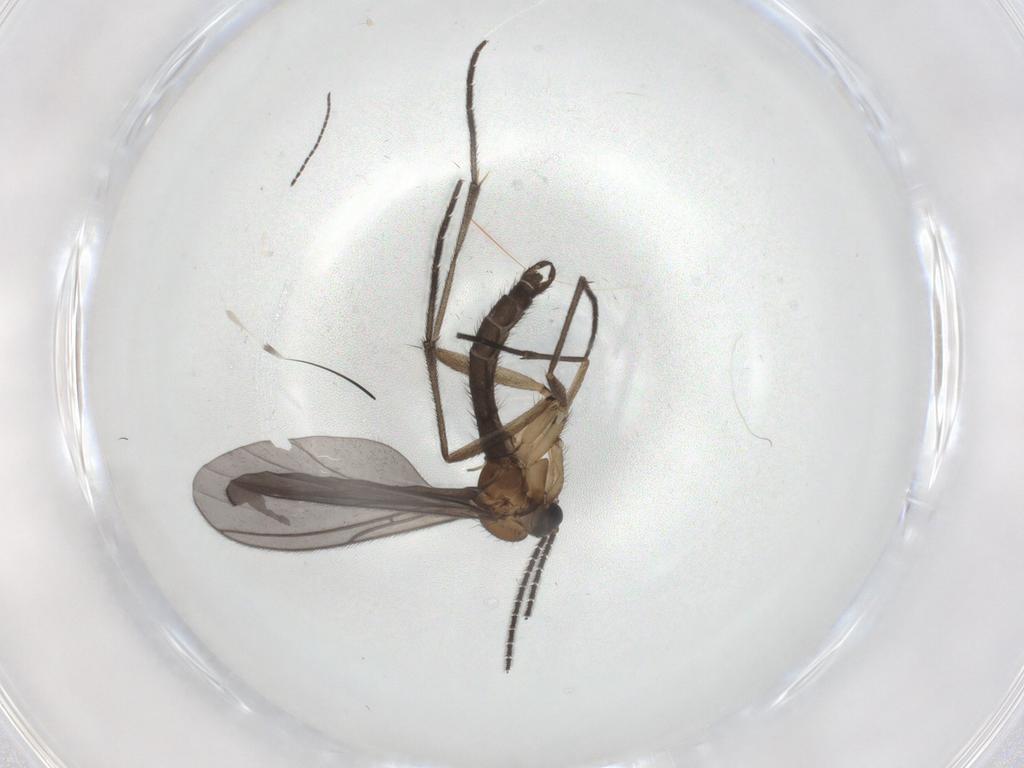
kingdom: Animalia
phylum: Arthropoda
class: Insecta
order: Diptera
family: Sciaridae
